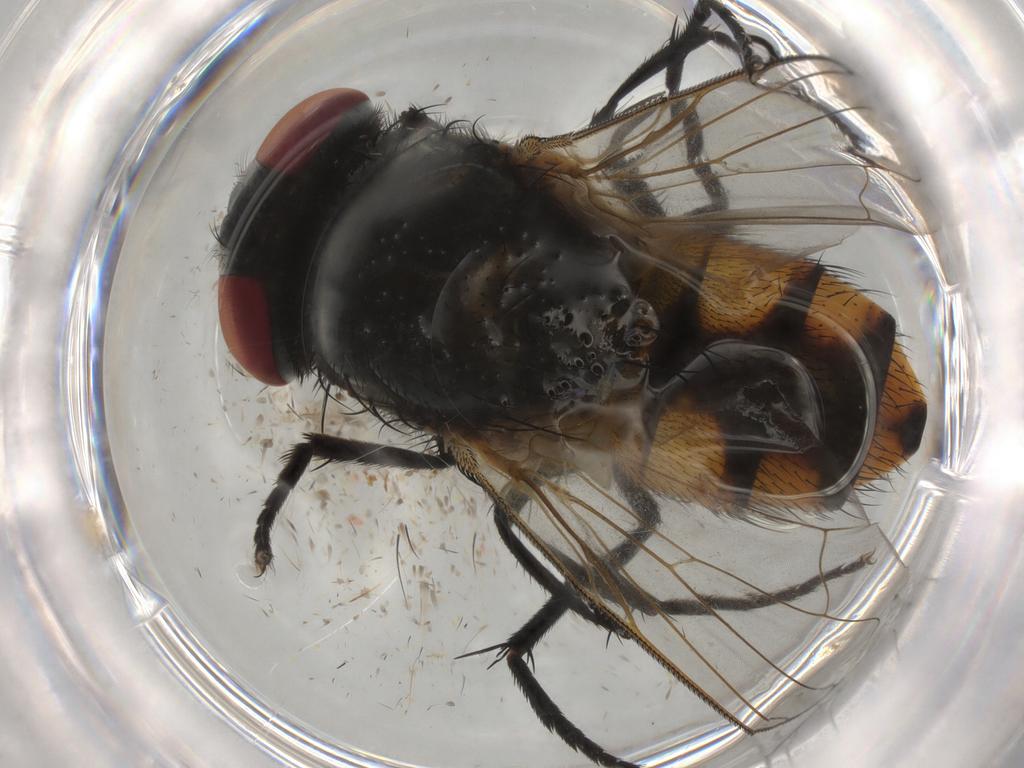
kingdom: Animalia
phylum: Arthropoda
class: Insecta
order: Diptera
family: Muscidae
